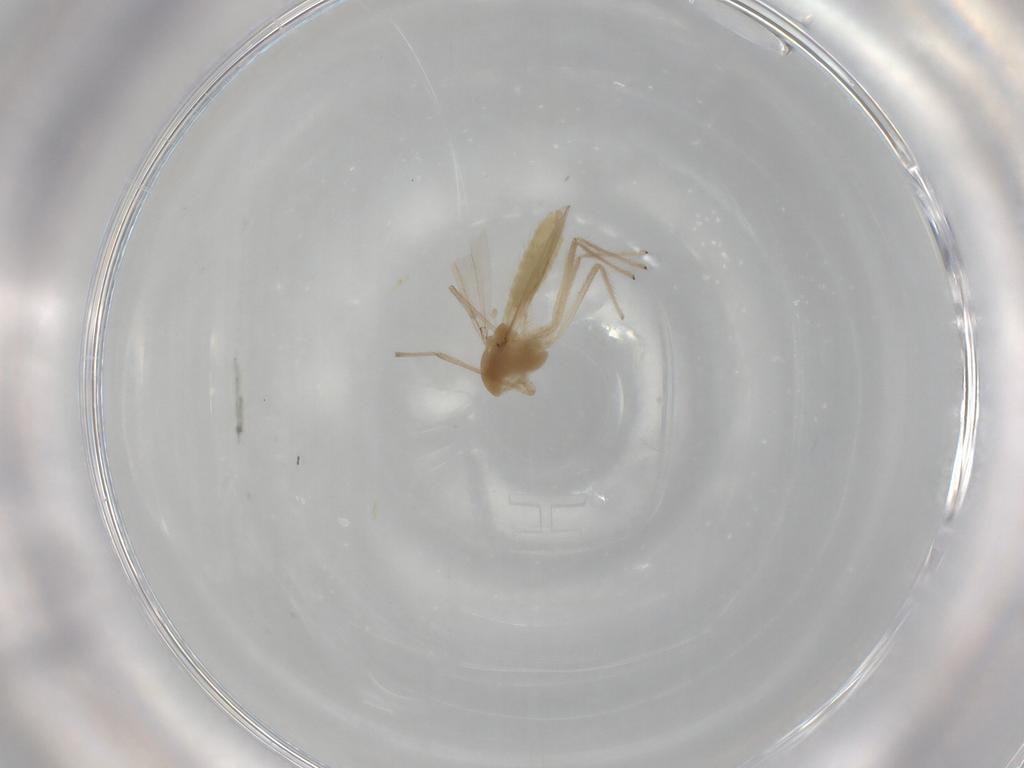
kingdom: Animalia
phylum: Arthropoda
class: Insecta
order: Diptera
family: Chironomidae
